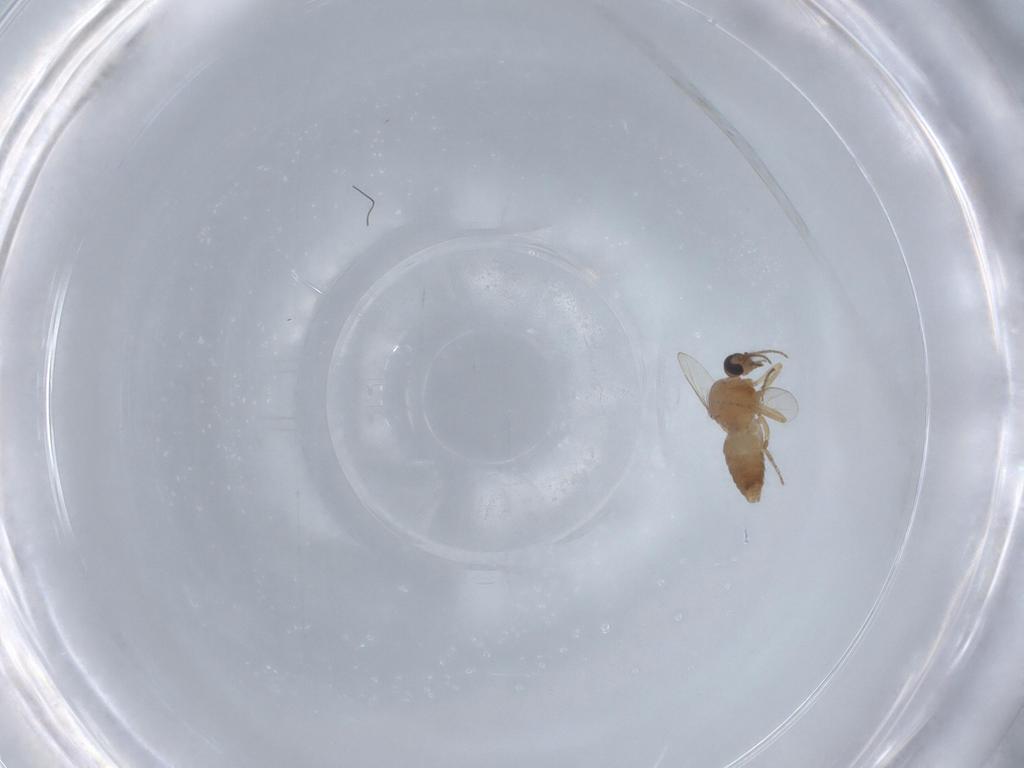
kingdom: Animalia
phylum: Arthropoda
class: Insecta
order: Diptera
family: Ceratopogonidae
